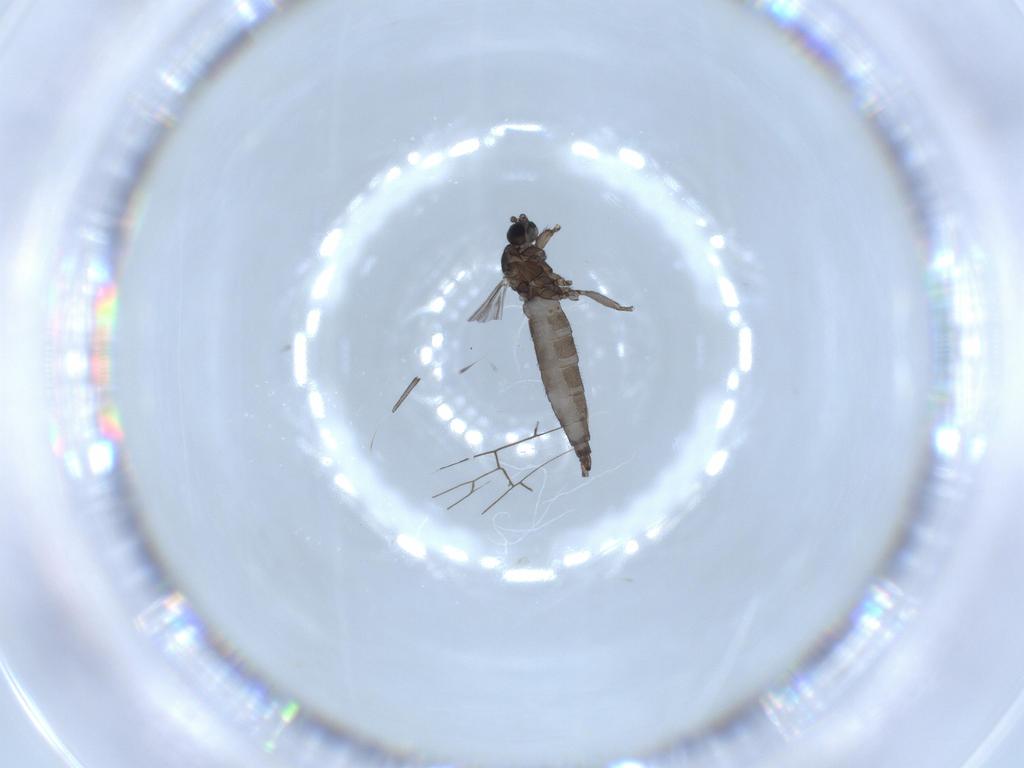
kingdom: Animalia
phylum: Arthropoda
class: Insecta
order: Diptera
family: Sciaridae
